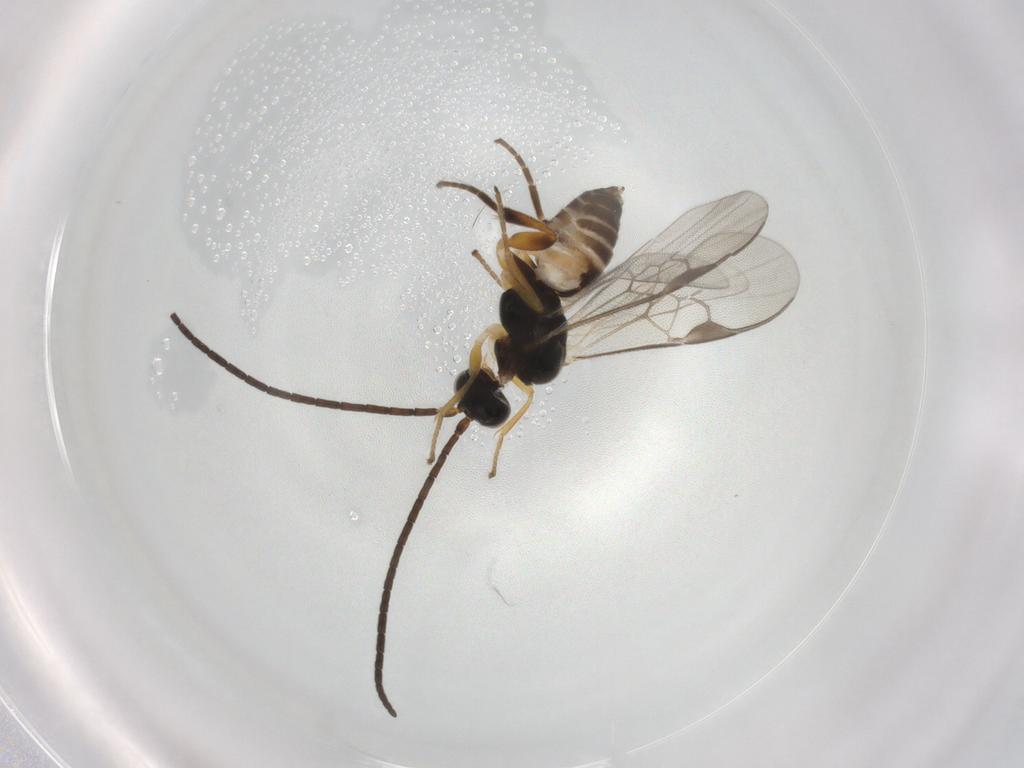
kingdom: Animalia
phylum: Arthropoda
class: Insecta
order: Hymenoptera
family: Braconidae
